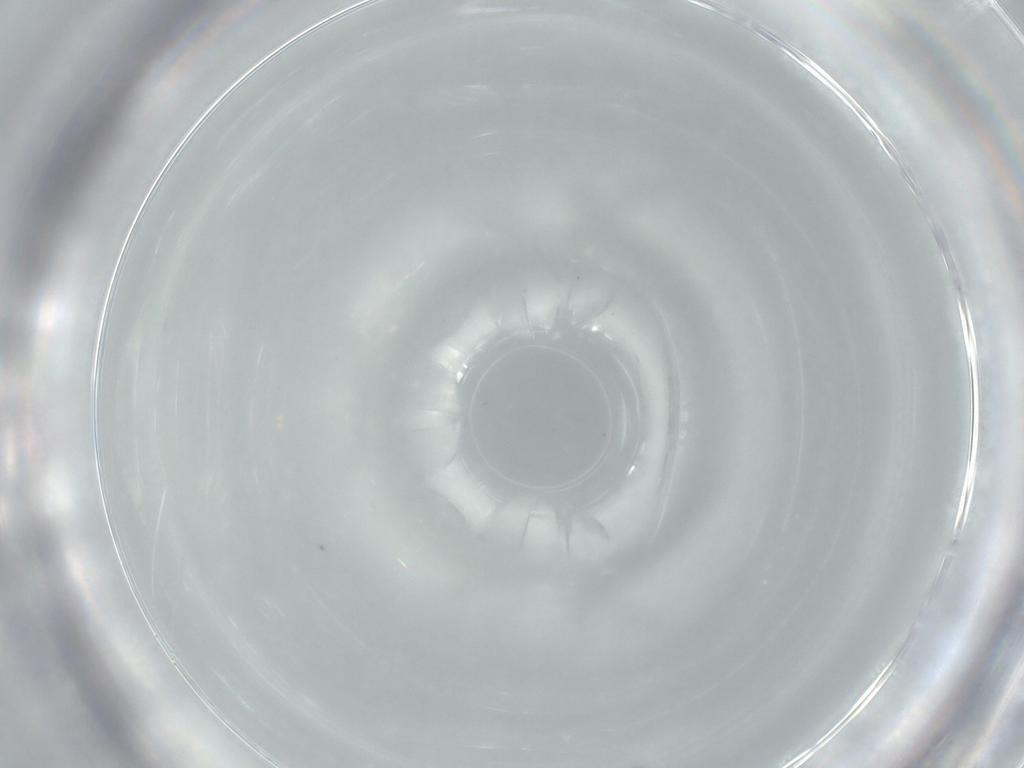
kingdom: Animalia
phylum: Arthropoda
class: Insecta
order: Diptera
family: Cecidomyiidae
